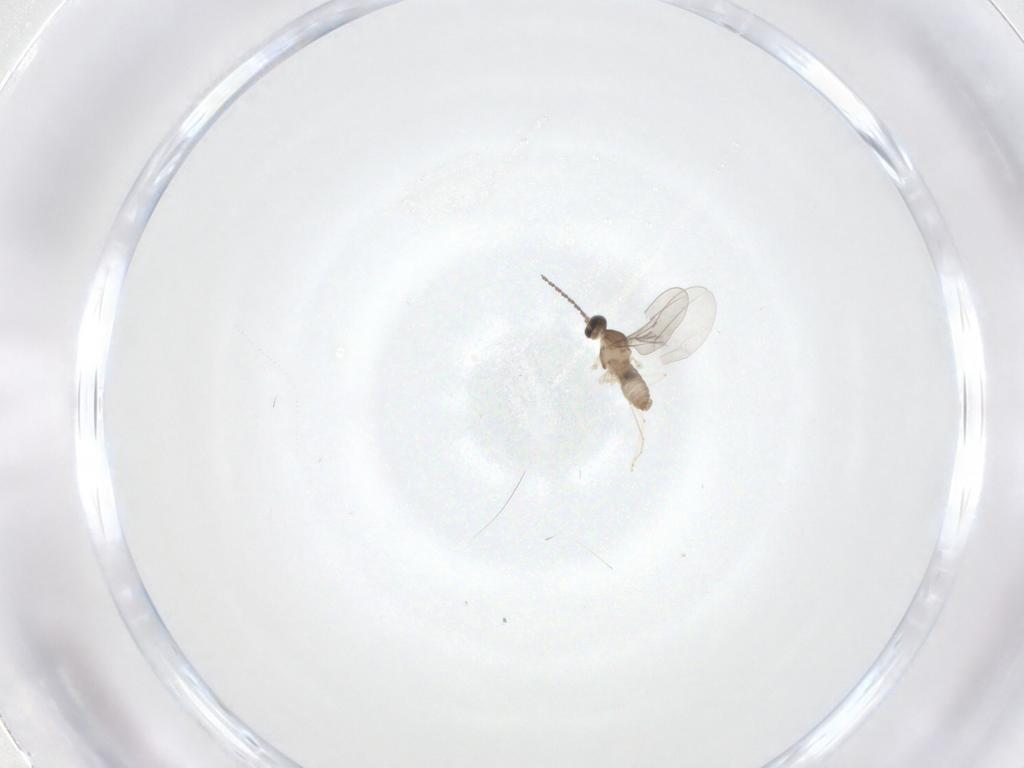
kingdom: Animalia
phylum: Arthropoda
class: Insecta
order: Diptera
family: Cecidomyiidae
